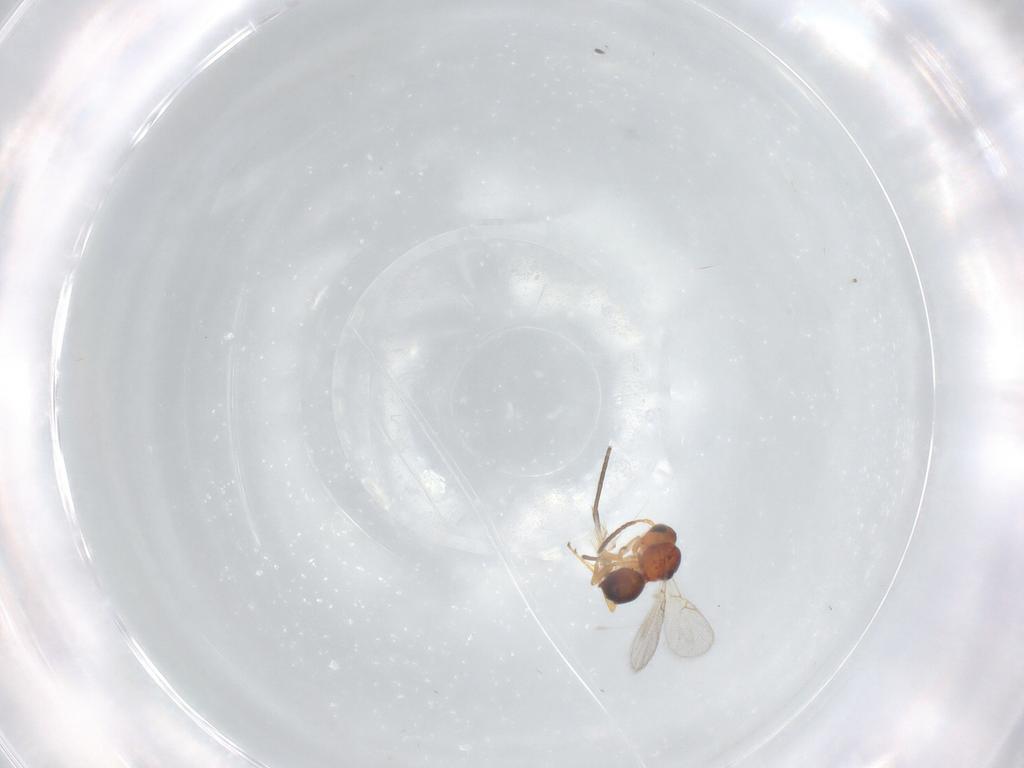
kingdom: Animalia
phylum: Arthropoda
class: Insecta
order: Hymenoptera
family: Figitidae
